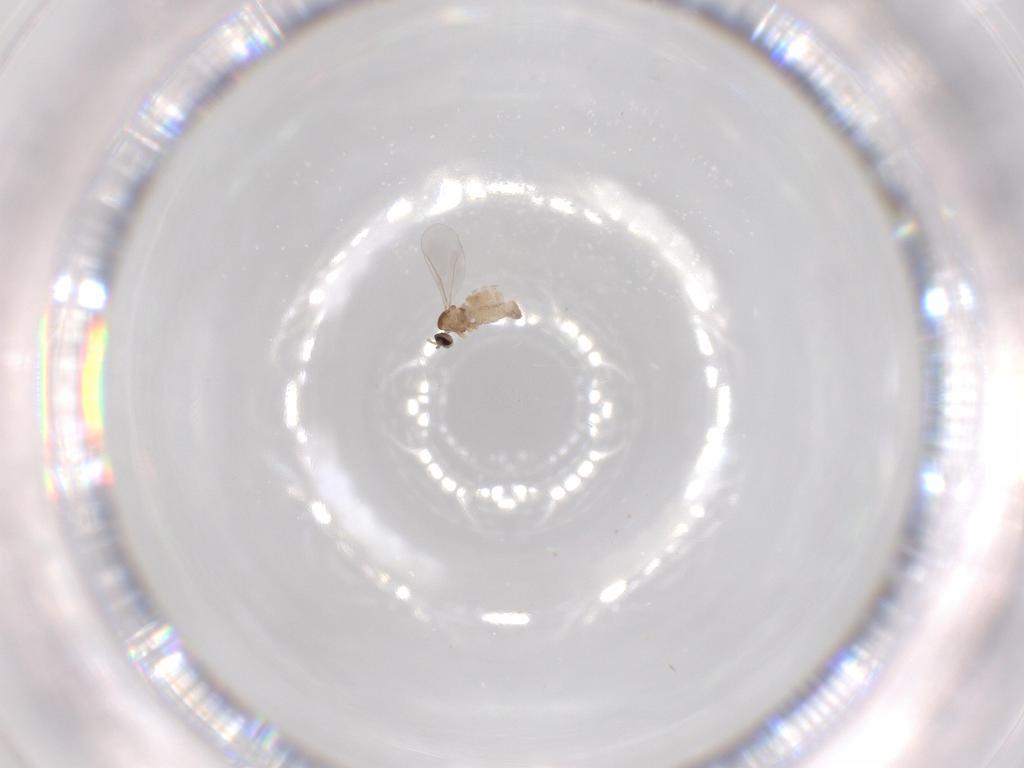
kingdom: Animalia
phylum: Arthropoda
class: Insecta
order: Diptera
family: Cecidomyiidae
